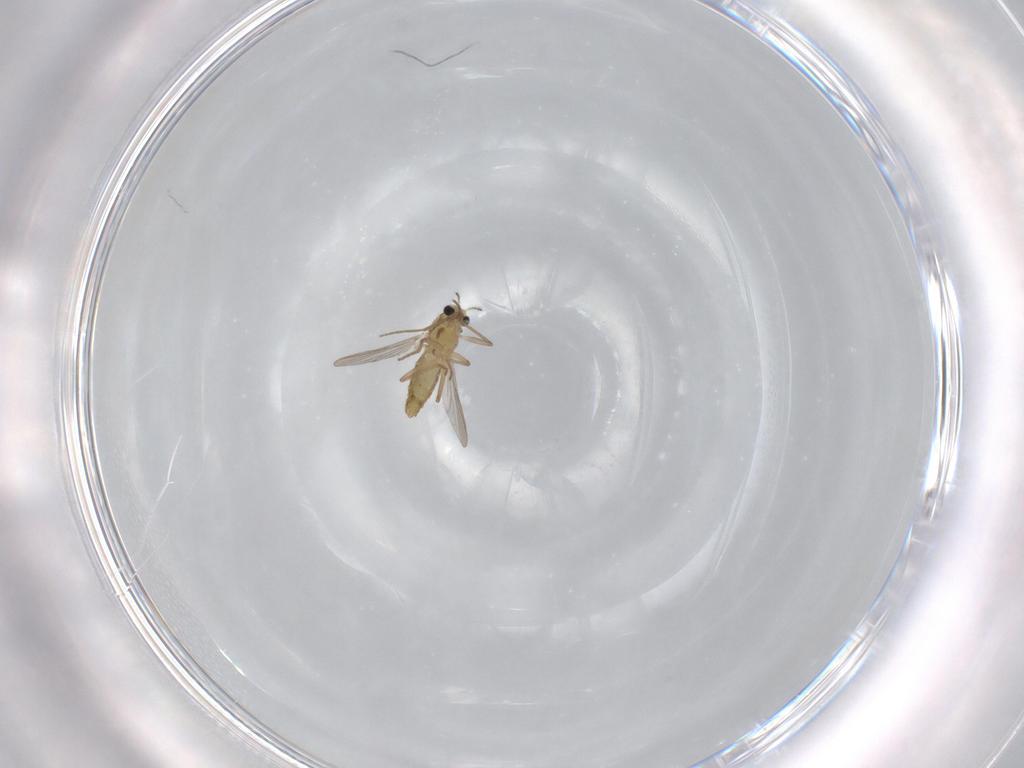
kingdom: Animalia
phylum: Arthropoda
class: Insecta
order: Diptera
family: Chironomidae
